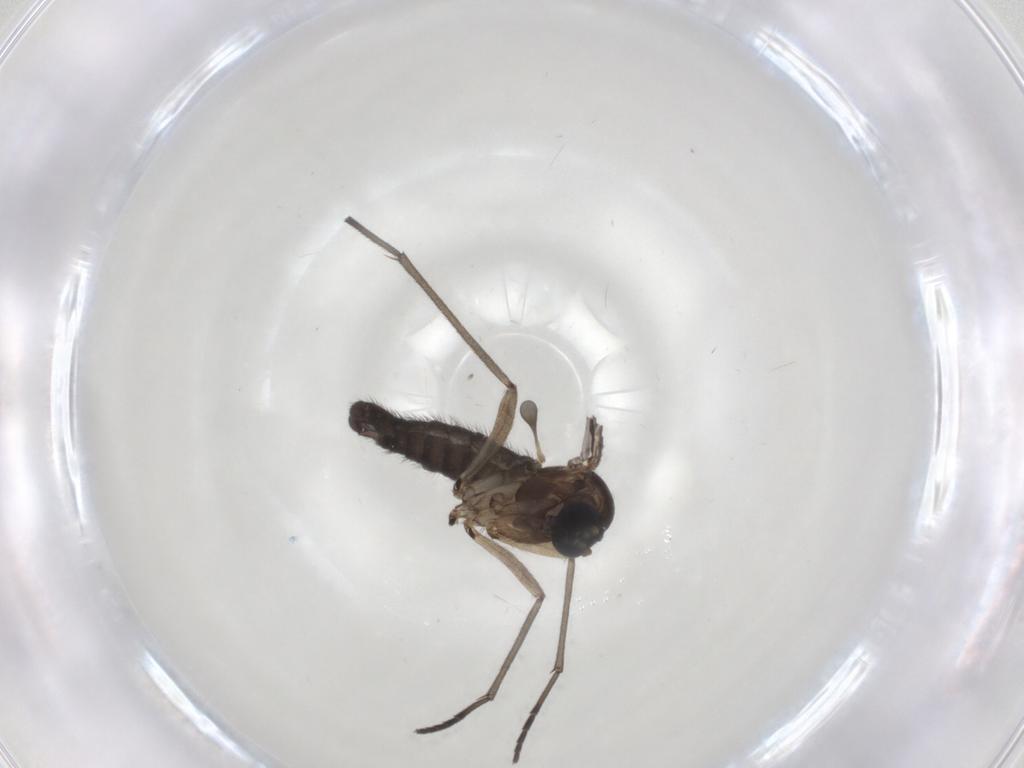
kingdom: Animalia
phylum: Arthropoda
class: Insecta
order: Diptera
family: Sciaridae
